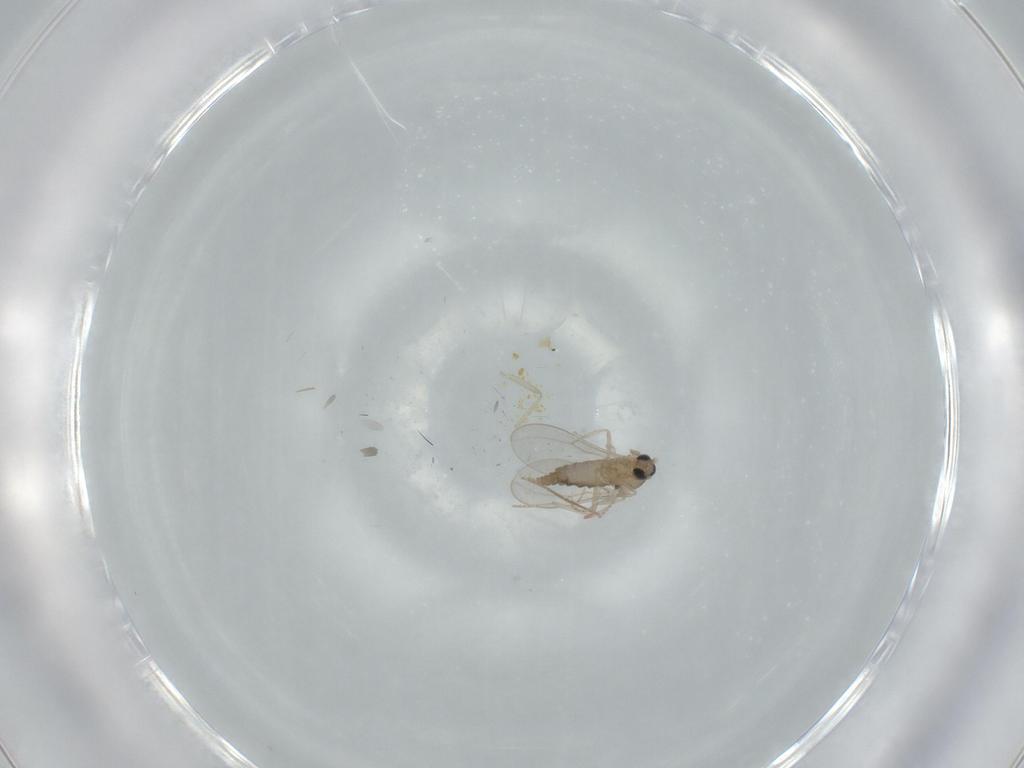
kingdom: Animalia
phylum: Arthropoda
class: Insecta
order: Diptera
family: Cecidomyiidae
